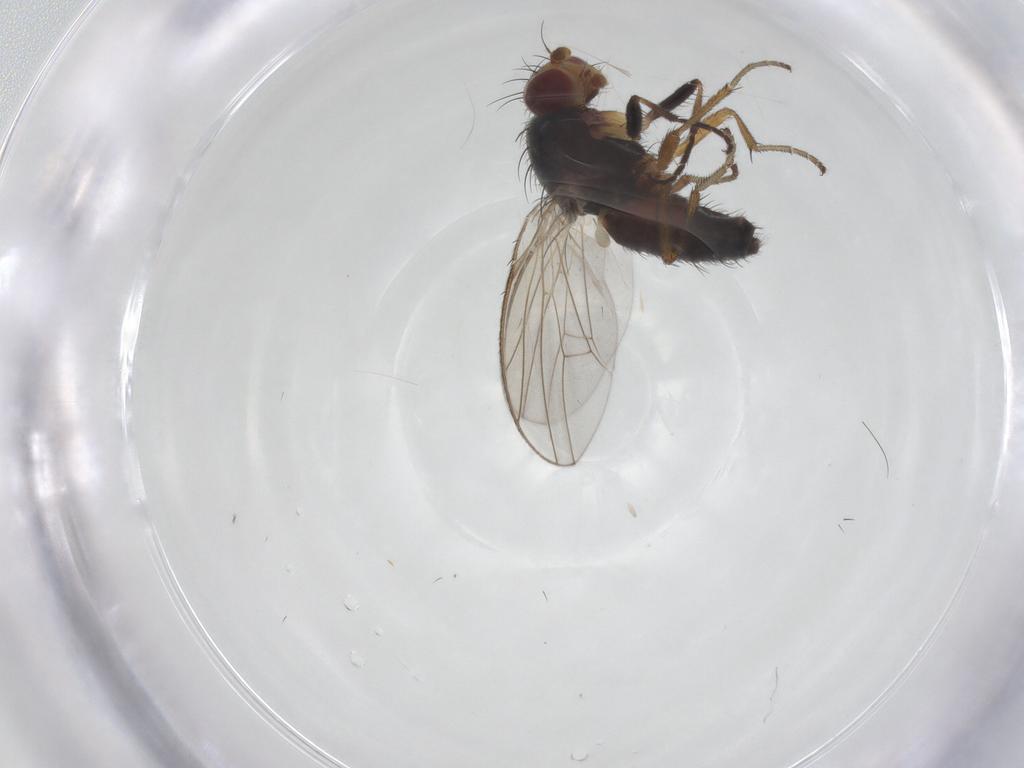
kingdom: Animalia
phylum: Arthropoda
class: Insecta
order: Diptera
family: Heleomyzidae
